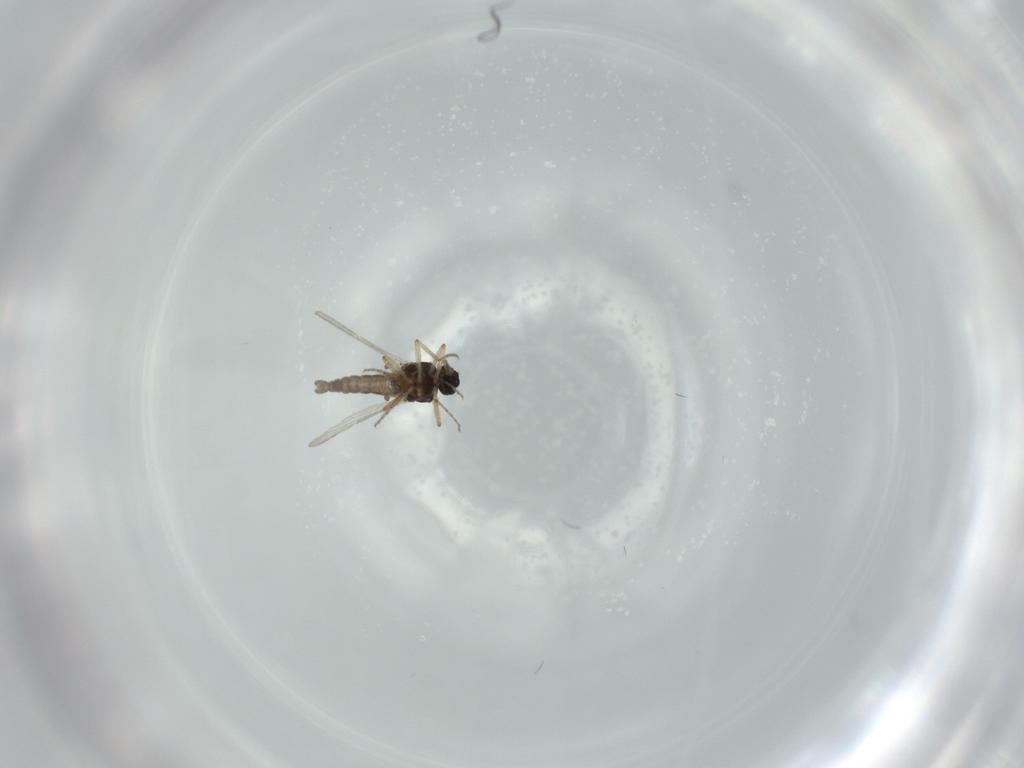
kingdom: Animalia
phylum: Arthropoda
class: Insecta
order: Diptera
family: Ceratopogonidae
